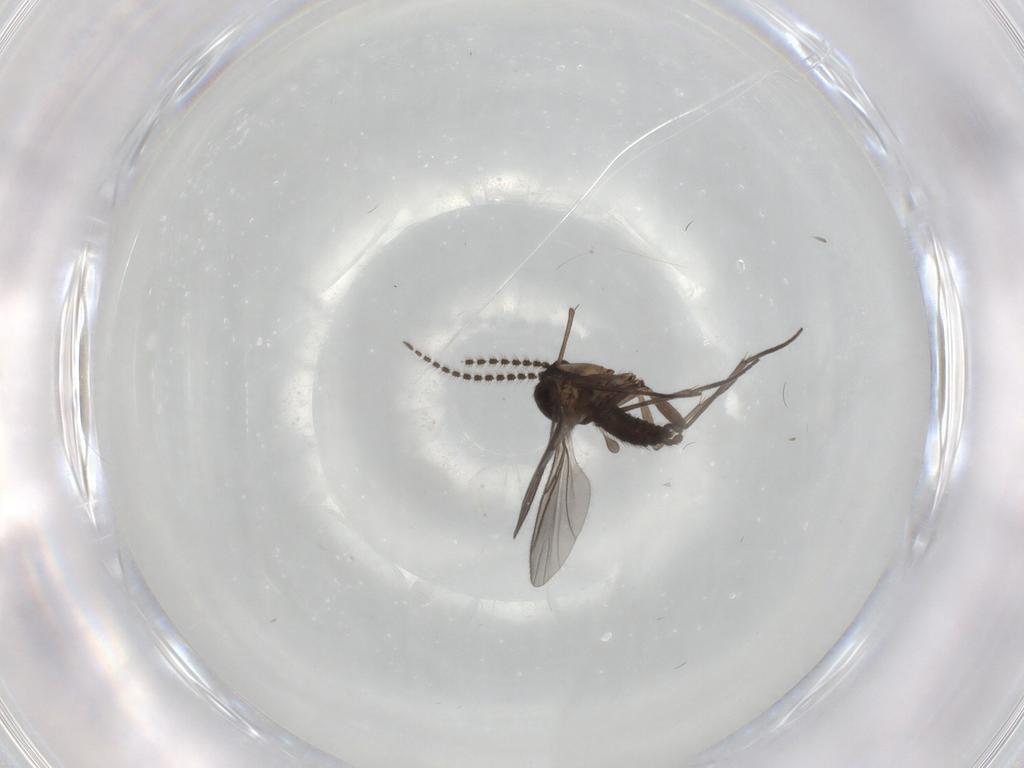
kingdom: Animalia
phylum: Arthropoda
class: Insecta
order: Diptera
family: Sciaridae
